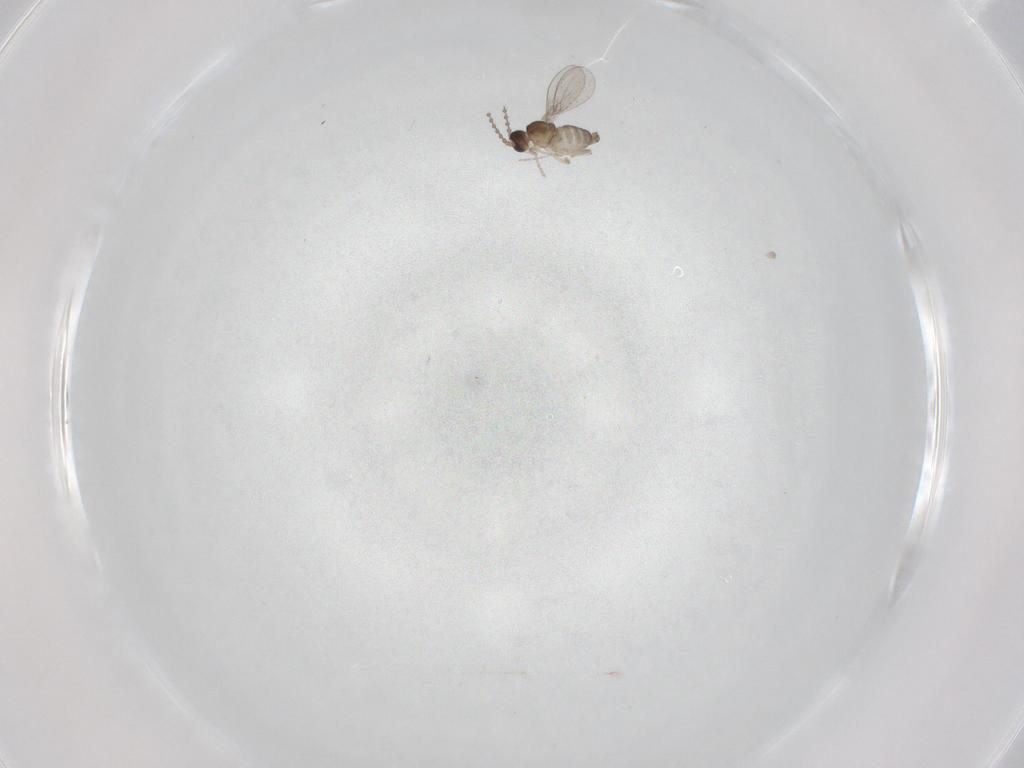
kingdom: Animalia
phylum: Arthropoda
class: Insecta
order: Diptera
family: Cecidomyiidae
